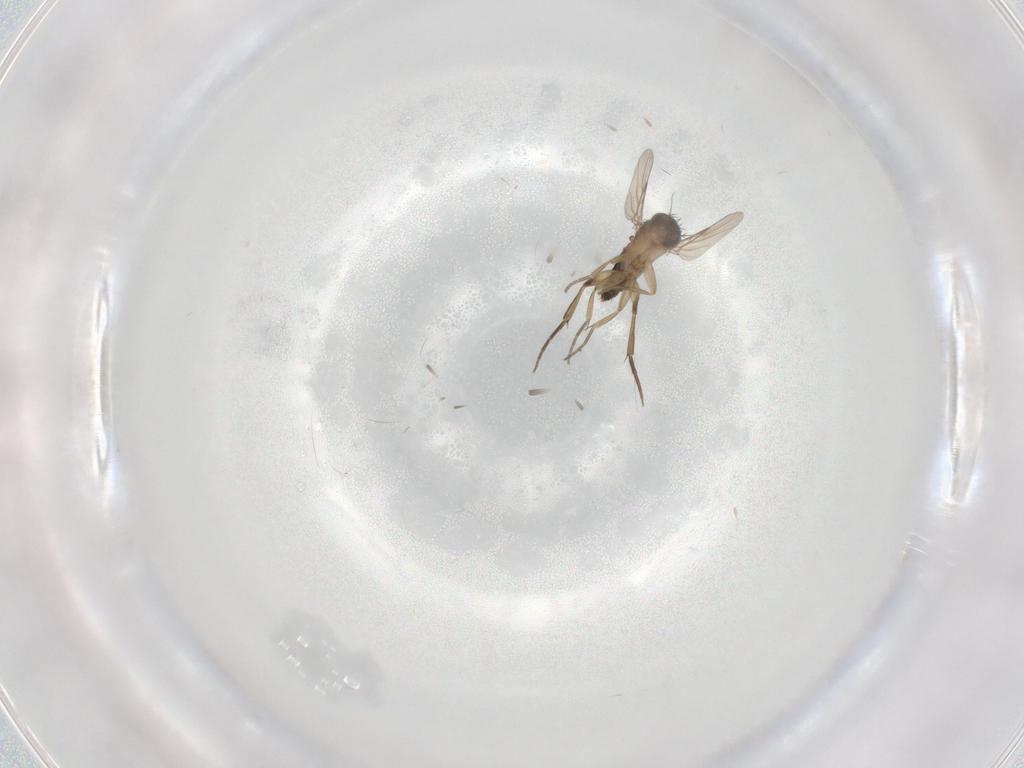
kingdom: Animalia
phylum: Arthropoda
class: Insecta
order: Diptera
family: Phoridae
